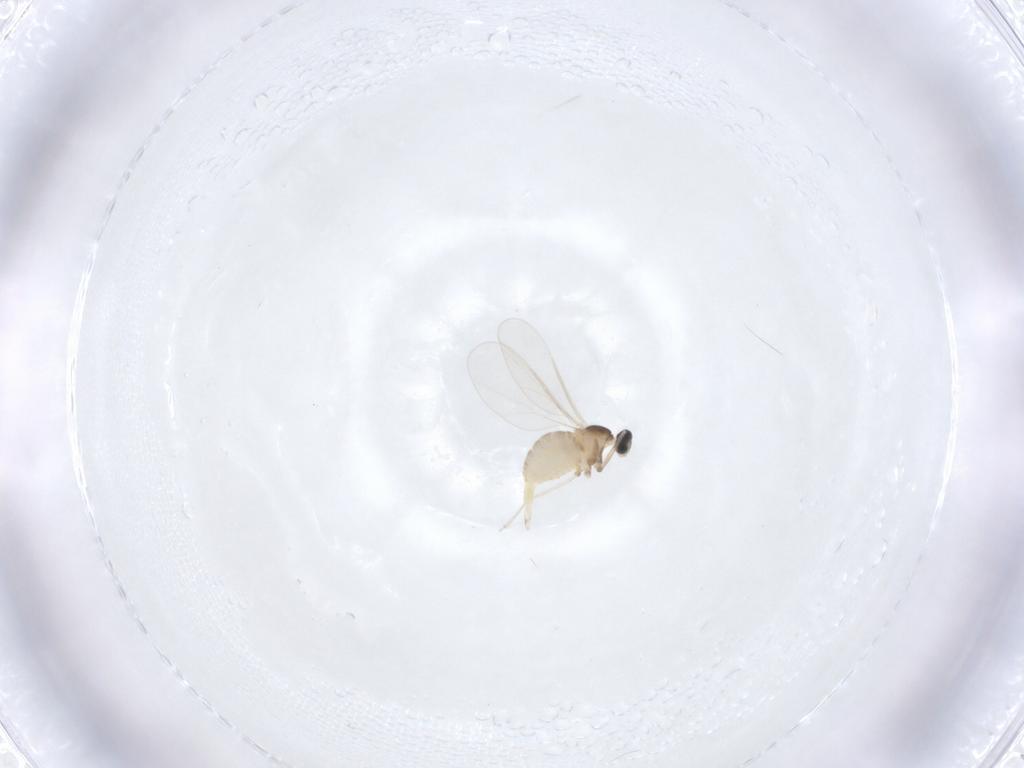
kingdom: Animalia
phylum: Arthropoda
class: Insecta
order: Diptera
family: Cecidomyiidae
